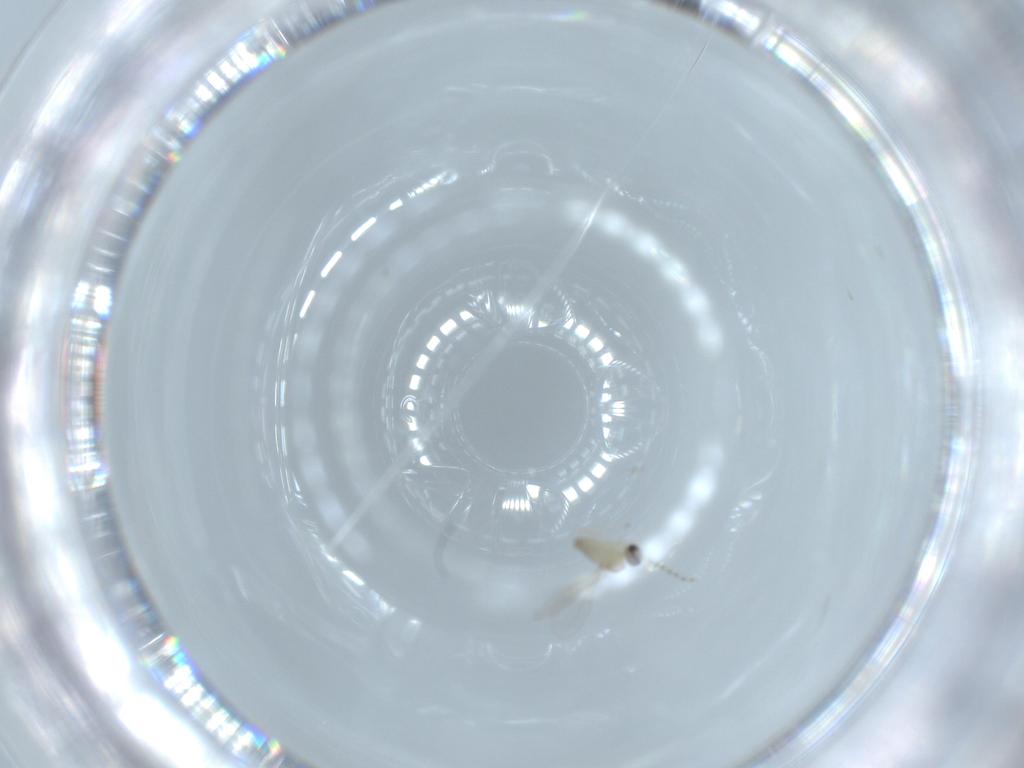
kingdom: Animalia
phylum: Arthropoda
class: Insecta
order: Diptera
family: Cecidomyiidae
